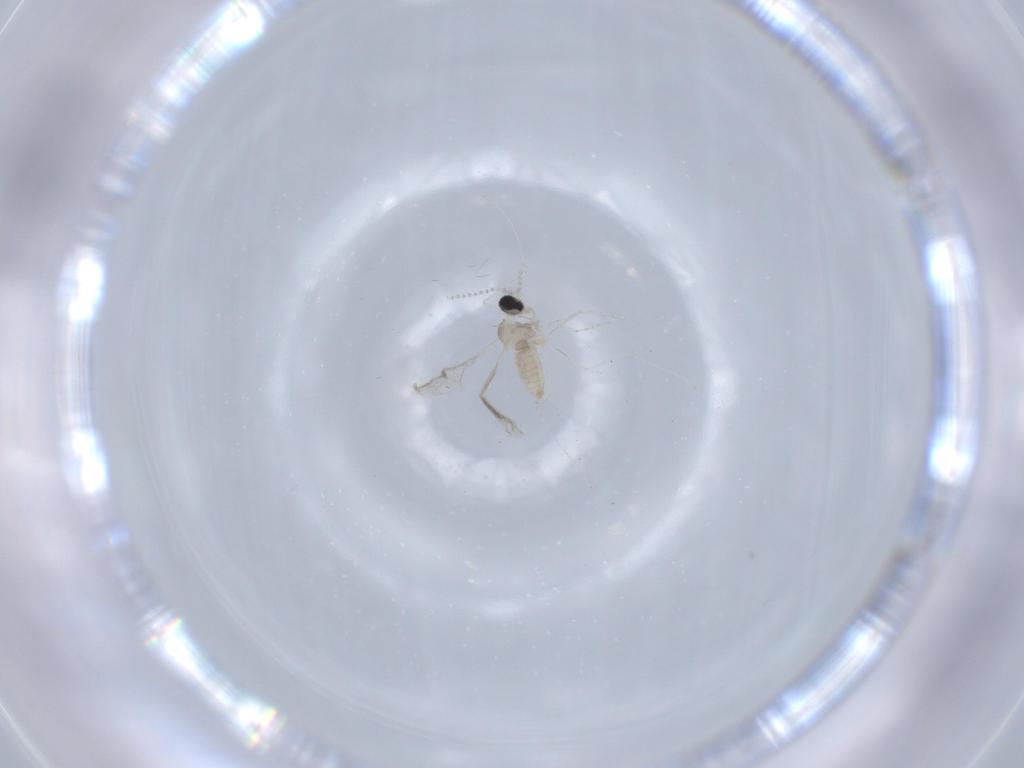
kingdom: Animalia
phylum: Arthropoda
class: Insecta
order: Diptera
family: Cecidomyiidae
